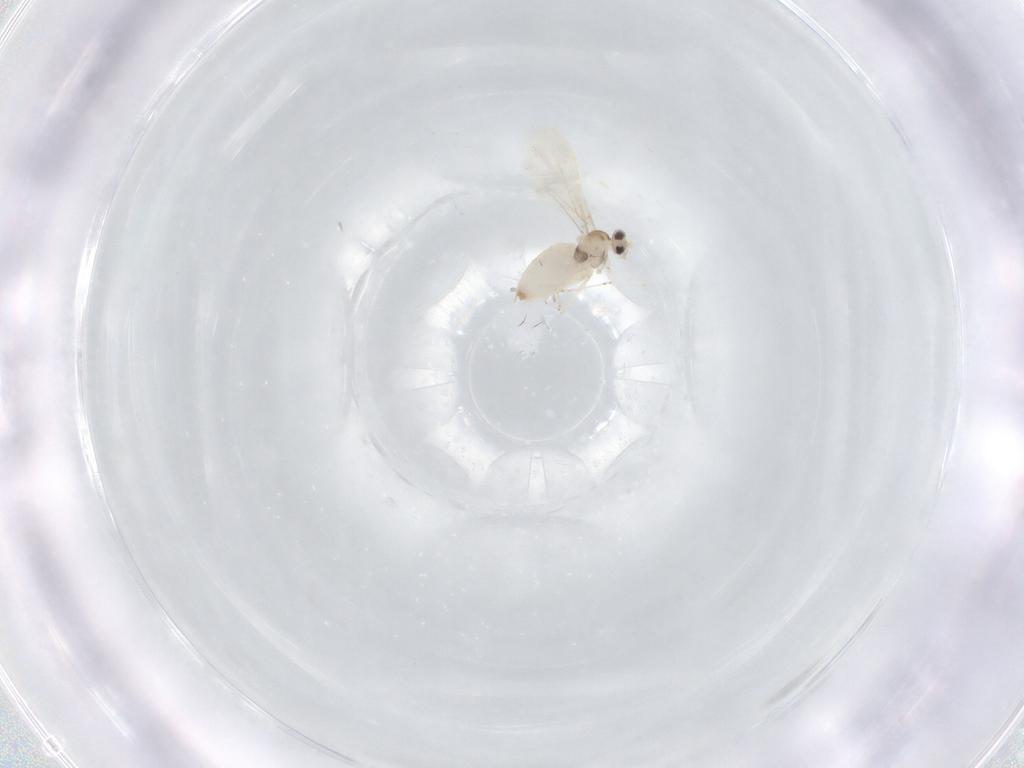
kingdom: Animalia
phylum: Arthropoda
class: Insecta
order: Diptera
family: Cecidomyiidae
